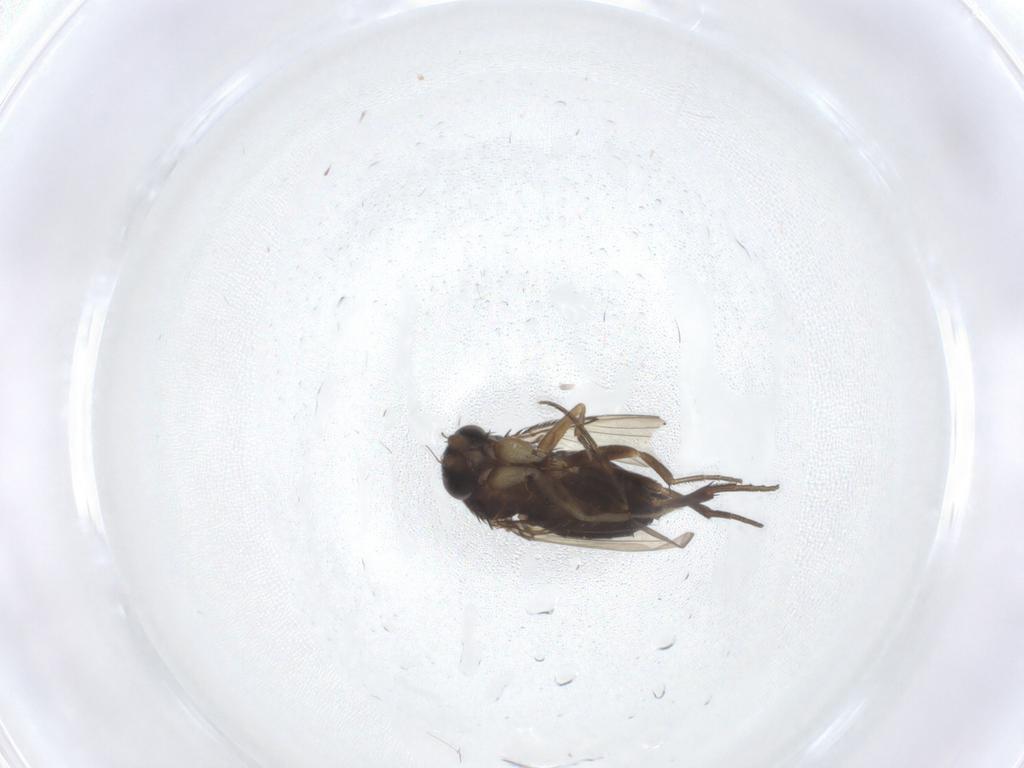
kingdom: Animalia
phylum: Arthropoda
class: Insecta
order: Diptera
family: Phoridae
